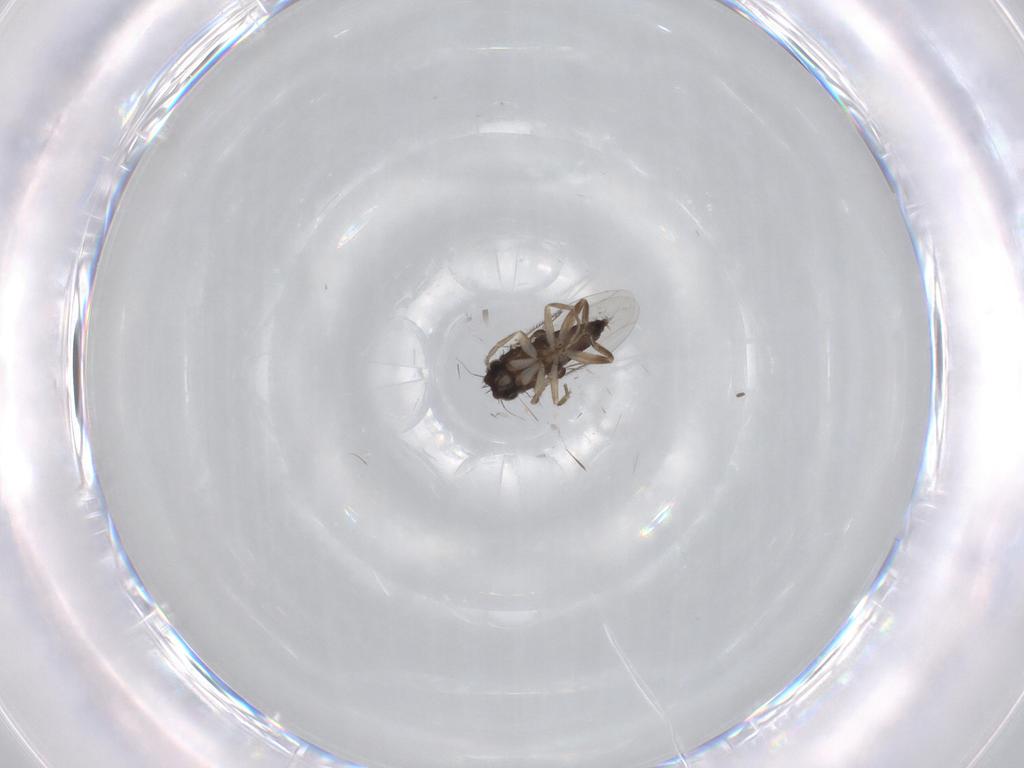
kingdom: Animalia
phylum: Arthropoda
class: Insecta
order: Diptera
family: Phoridae
